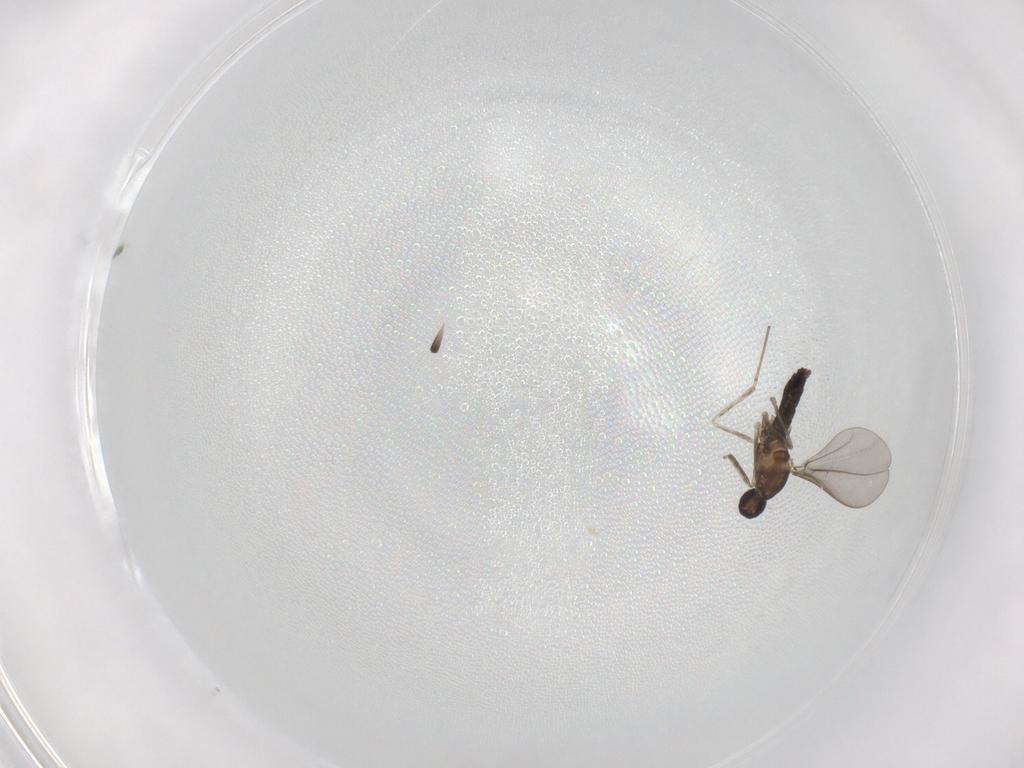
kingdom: Animalia
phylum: Arthropoda
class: Insecta
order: Diptera
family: Cecidomyiidae
